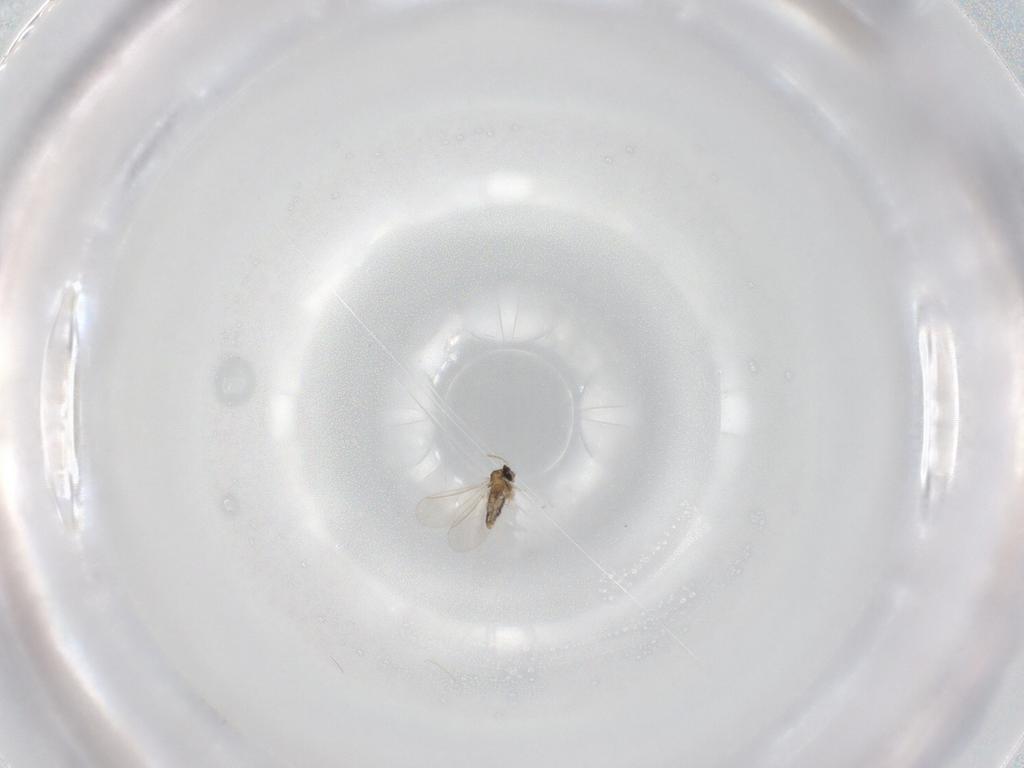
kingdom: Animalia
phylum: Arthropoda
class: Insecta
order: Diptera
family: Cecidomyiidae
